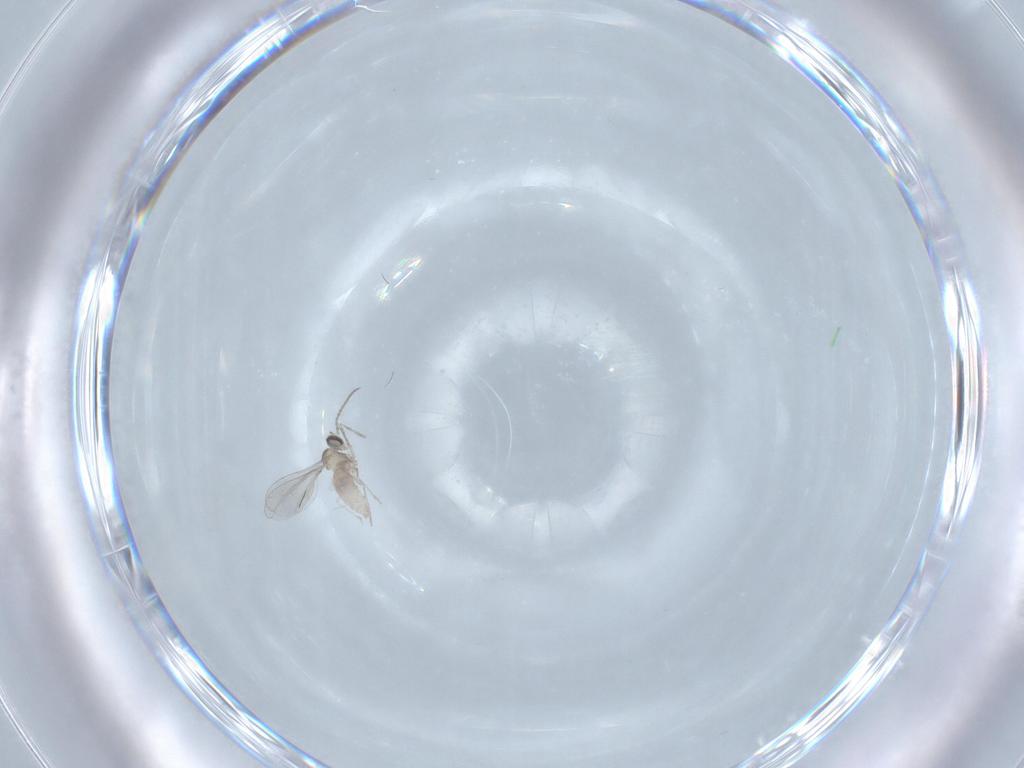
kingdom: Animalia
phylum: Arthropoda
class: Insecta
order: Diptera
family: Cecidomyiidae
